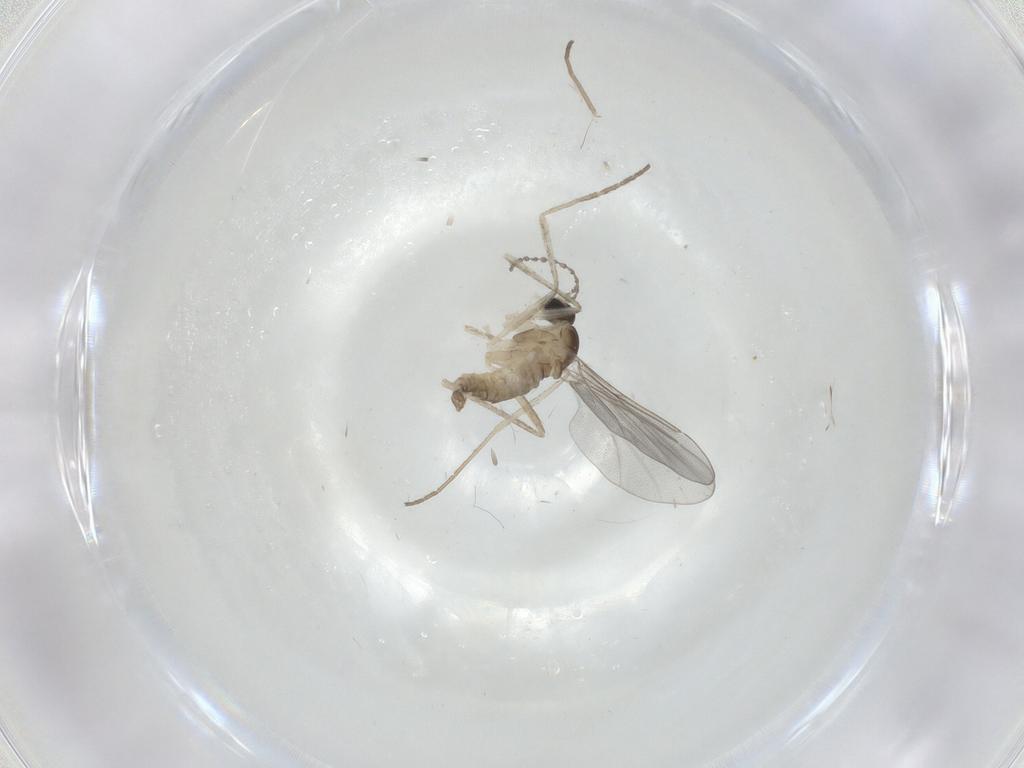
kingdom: Animalia
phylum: Arthropoda
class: Insecta
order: Diptera
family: Cecidomyiidae
